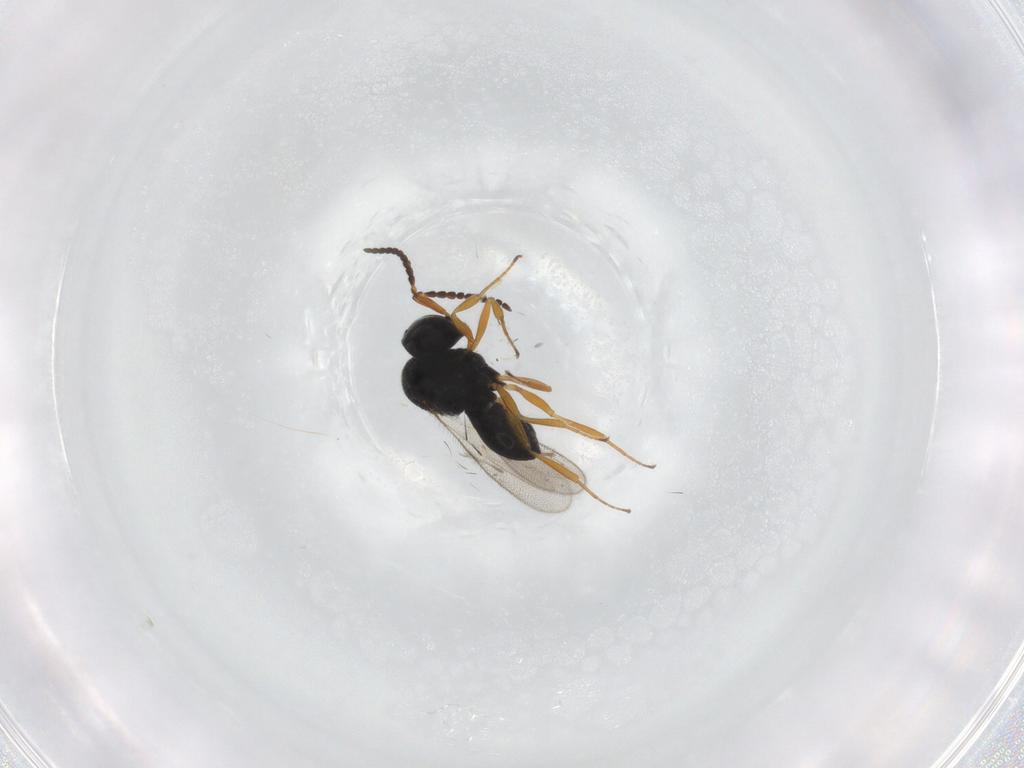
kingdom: Animalia
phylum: Arthropoda
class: Insecta
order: Hymenoptera
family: Scelionidae
